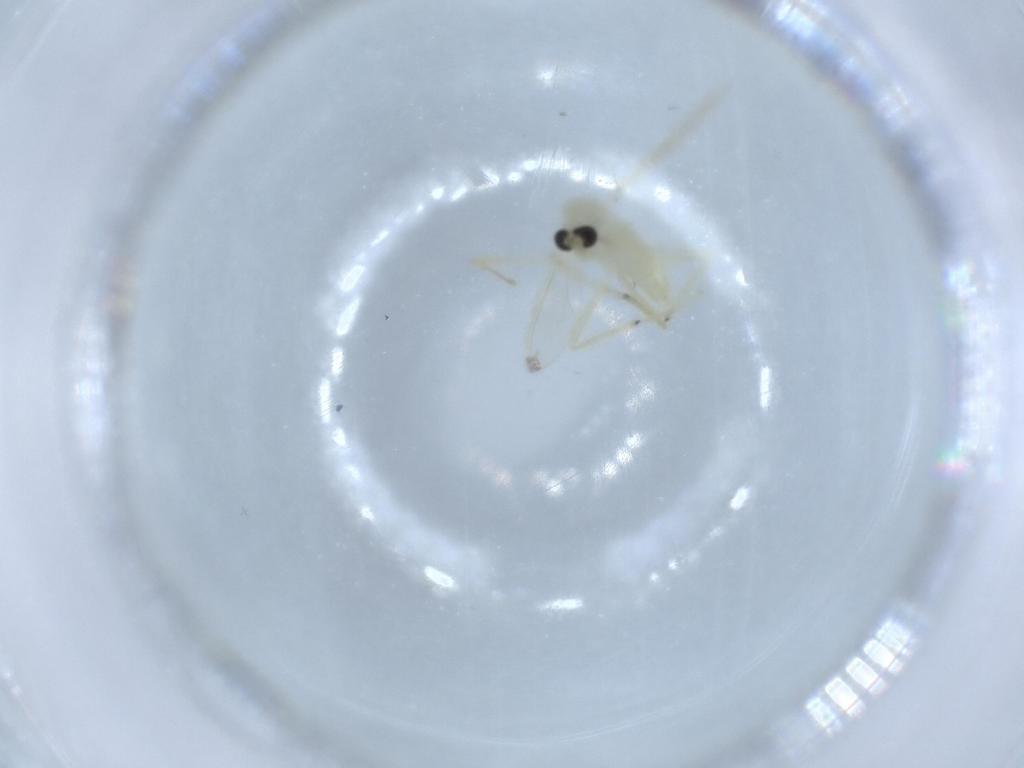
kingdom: Animalia
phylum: Arthropoda
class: Insecta
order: Diptera
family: Chironomidae
